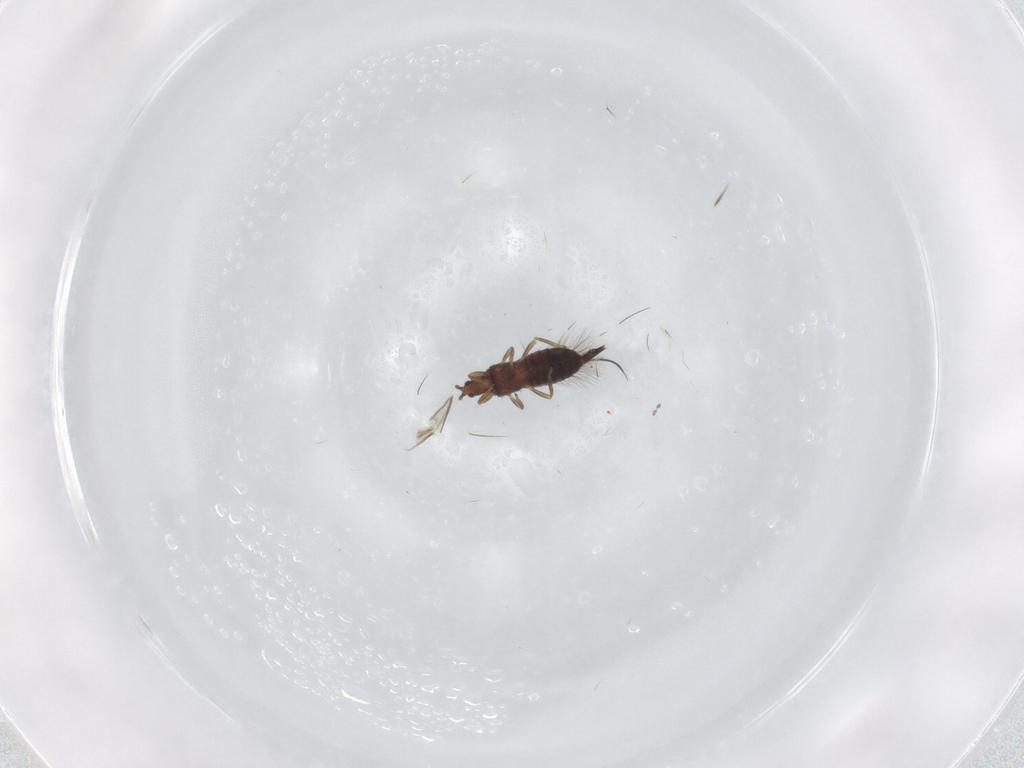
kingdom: Animalia
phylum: Arthropoda
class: Insecta
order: Thysanoptera
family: Phlaeothripidae
